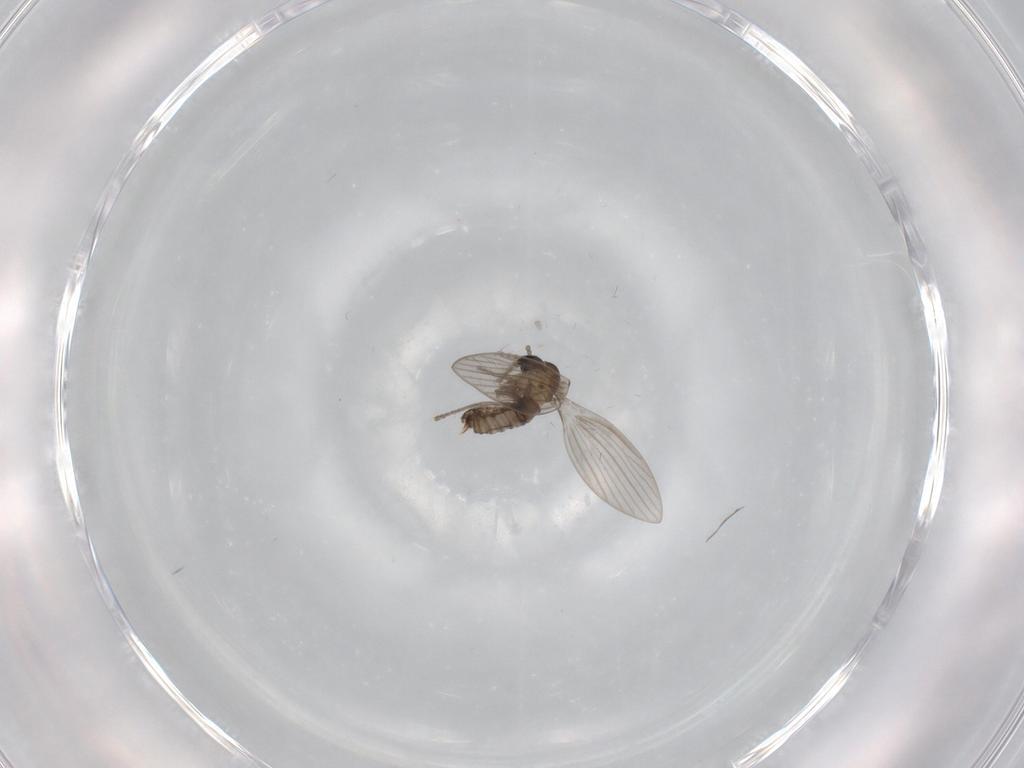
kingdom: Animalia
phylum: Arthropoda
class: Insecta
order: Diptera
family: Psychodidae
